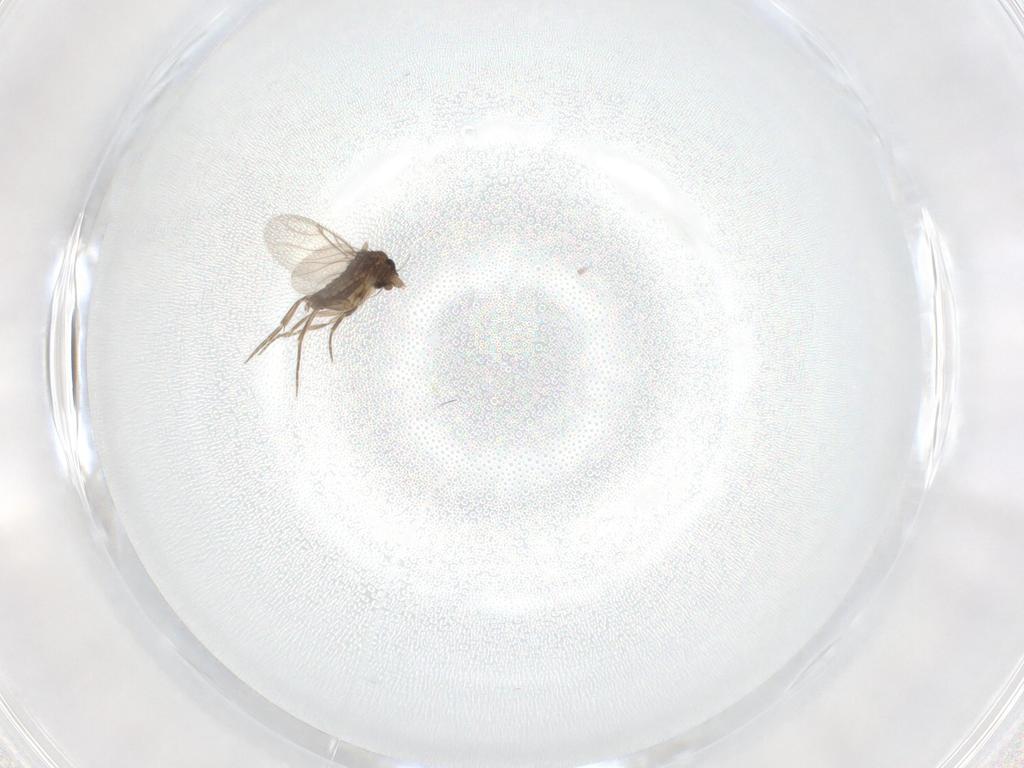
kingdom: Animalia
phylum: Arthropoda
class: Insecta
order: Diptera
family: Phoridae
